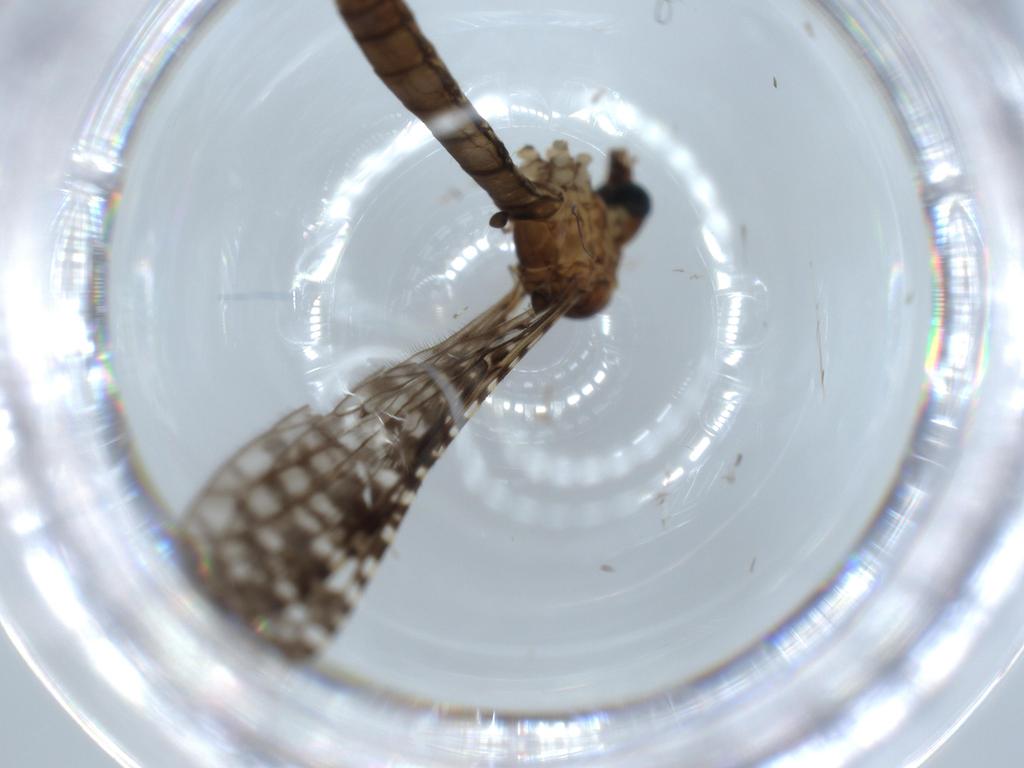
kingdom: Animalia
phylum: Arthropoda
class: Insecta
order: Diptera
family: Limoniidae
